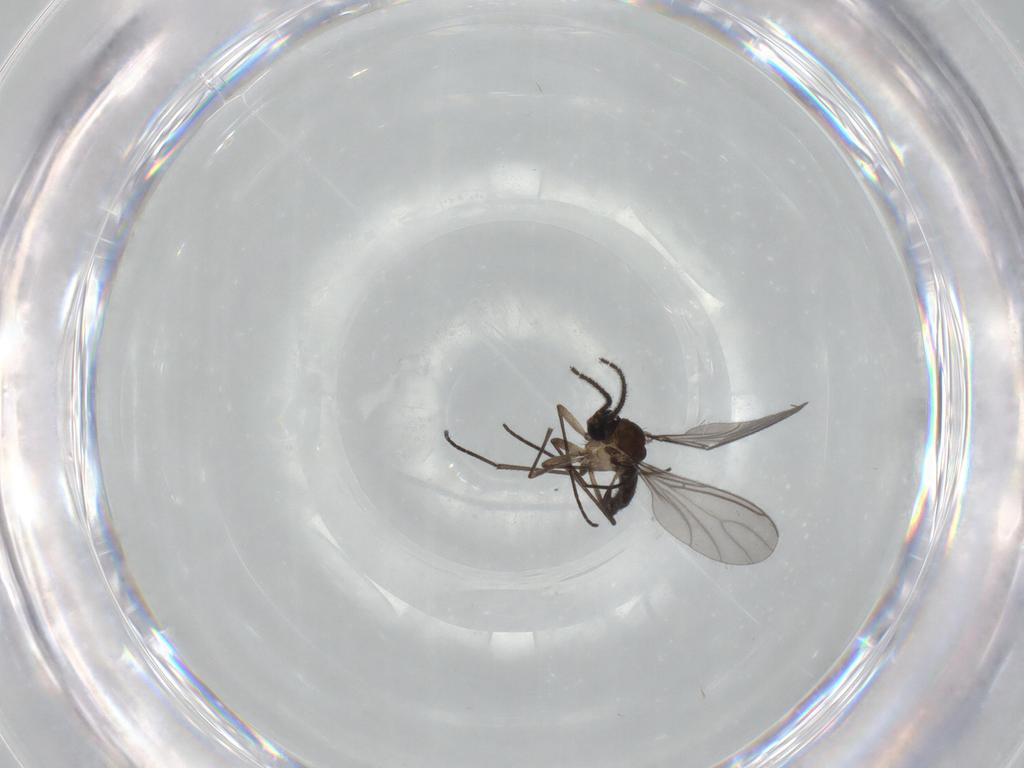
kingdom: Animalia
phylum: Arthropoda
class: Insecta
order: Diptera
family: Sciaridae
